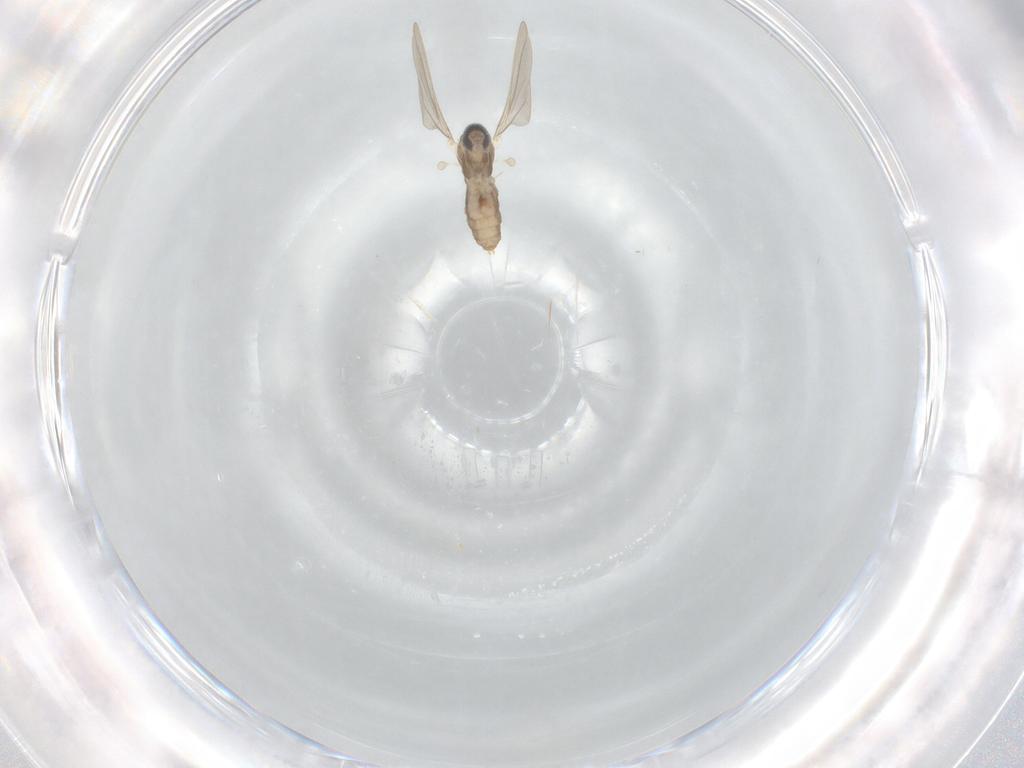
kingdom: Animalia
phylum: Arthropoda
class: Insecta
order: Diptera
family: Cecidomyiidae
